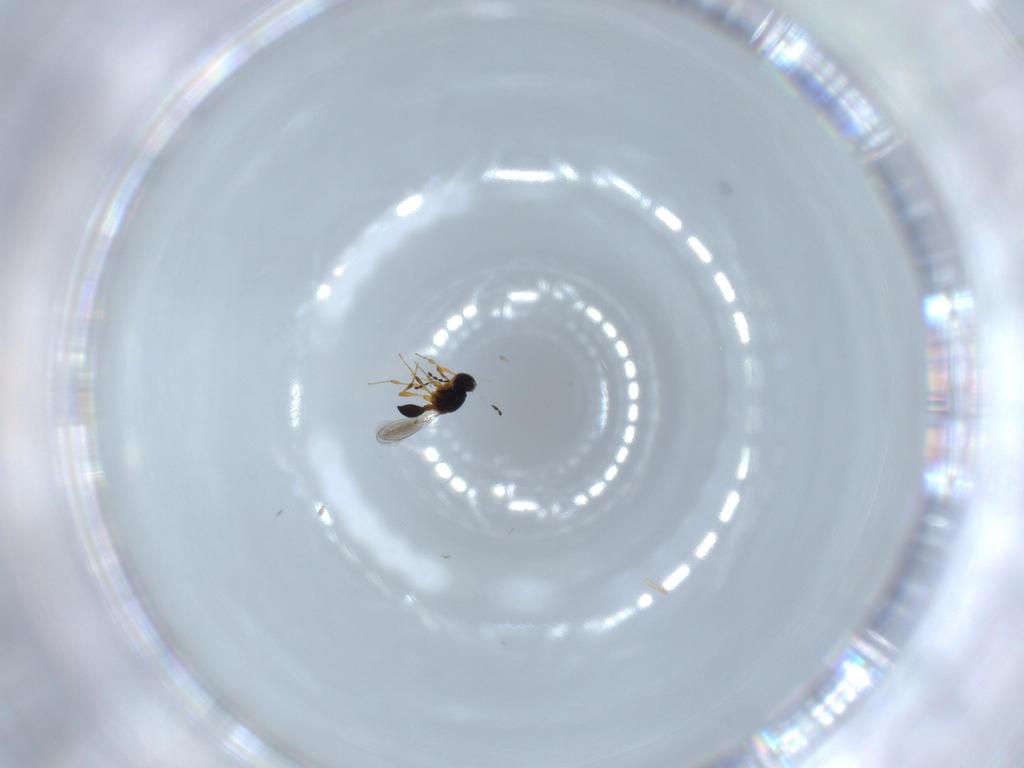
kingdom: Animalia
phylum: Arthropoda
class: Insecta
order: Hymenoptera
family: Platygastridae
